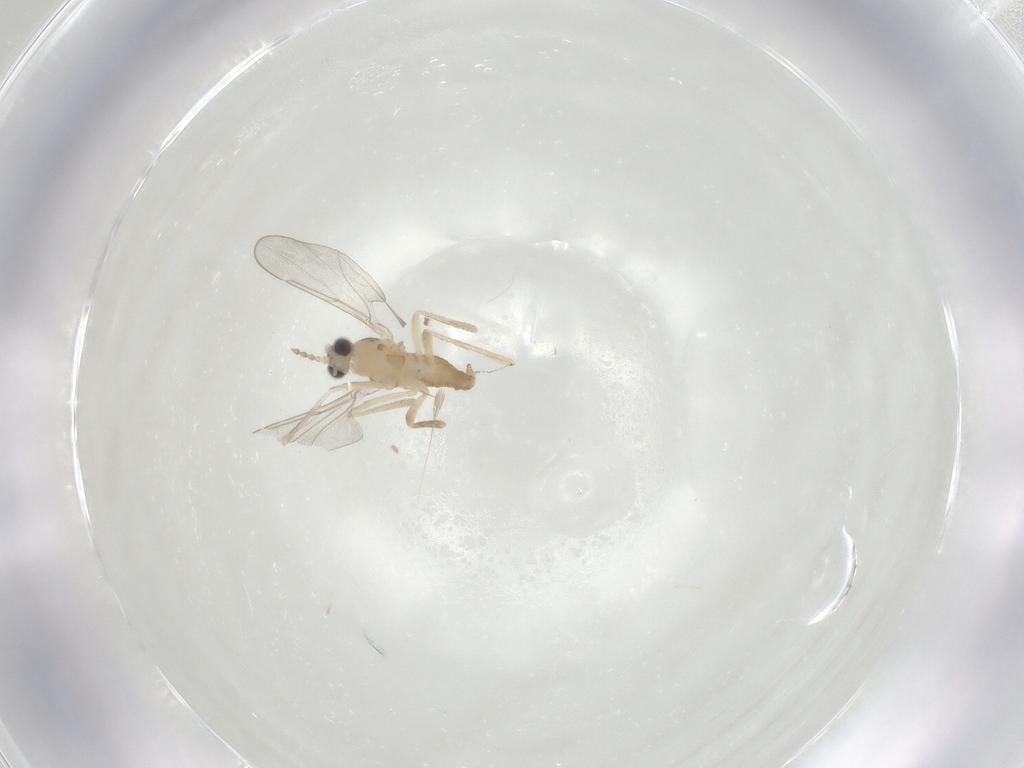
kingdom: Animalia
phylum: Arthropoda
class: Insecta
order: Diptera
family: Cecidomyiidae
